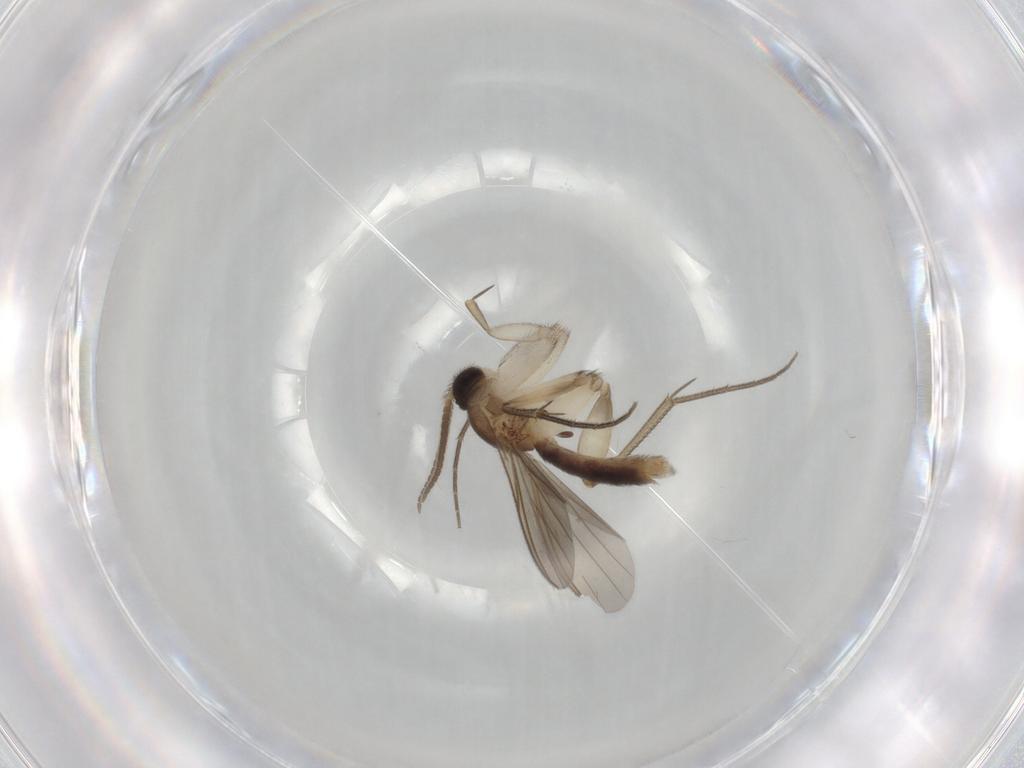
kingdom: Animalia
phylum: Arthropoda
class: Insecta
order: Diptera
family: Mycetophilidae
